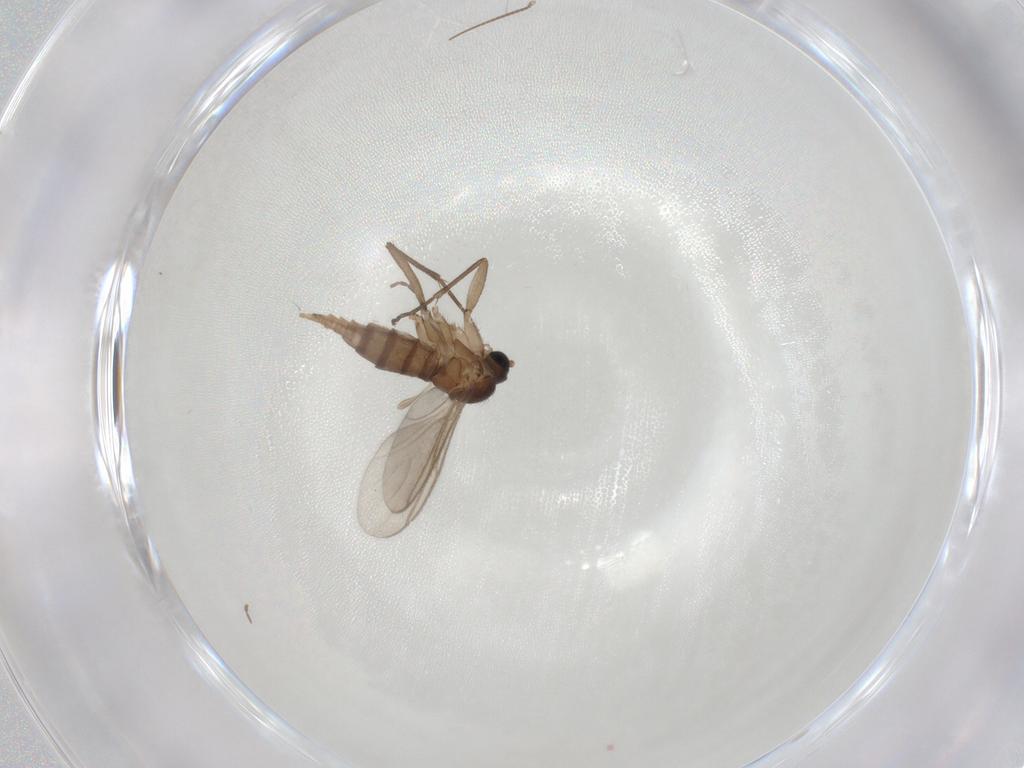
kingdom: Animalia
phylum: Arthropoda
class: Insecta
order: Diptera
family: Sciaridae
